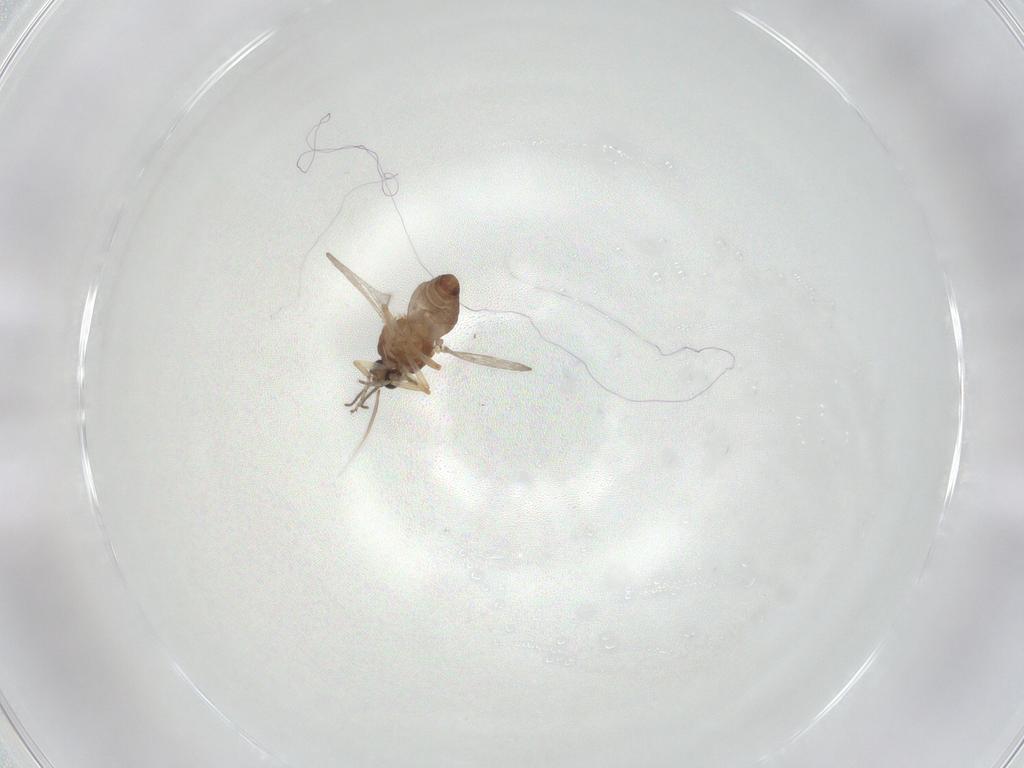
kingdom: Animalia
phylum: Arthropoda
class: Insecta
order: Diptera
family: Ceratopogonidae
